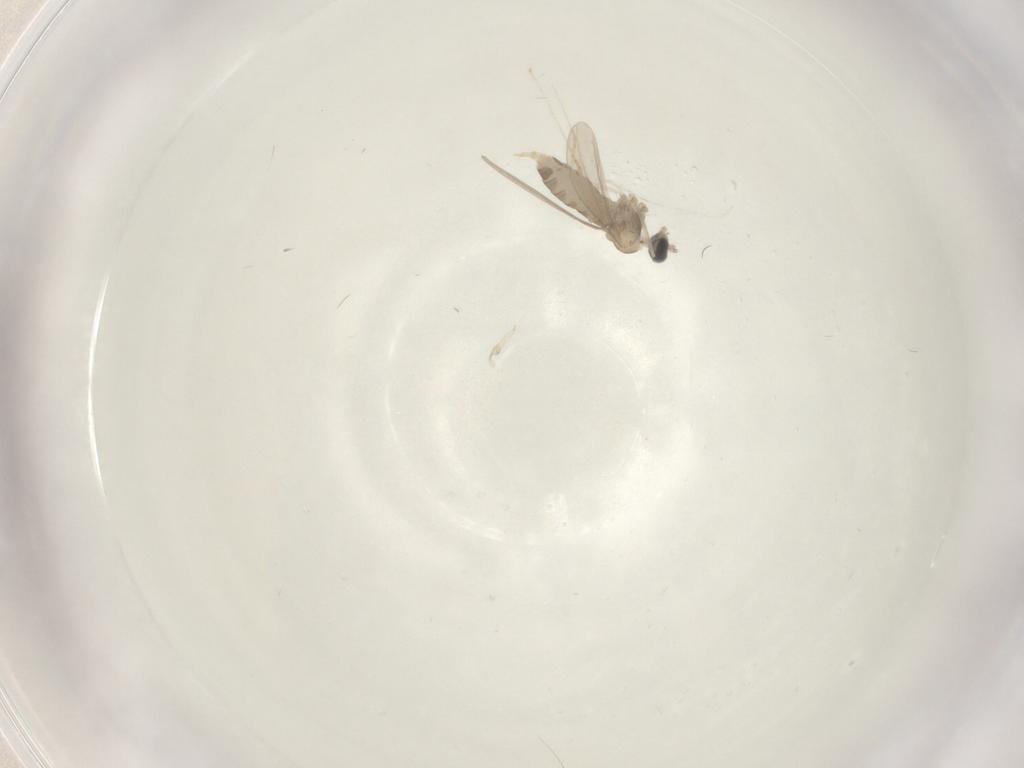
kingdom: Animalia
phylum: Arthropoda
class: Insecta
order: Diptera
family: Cecidomyiidae
